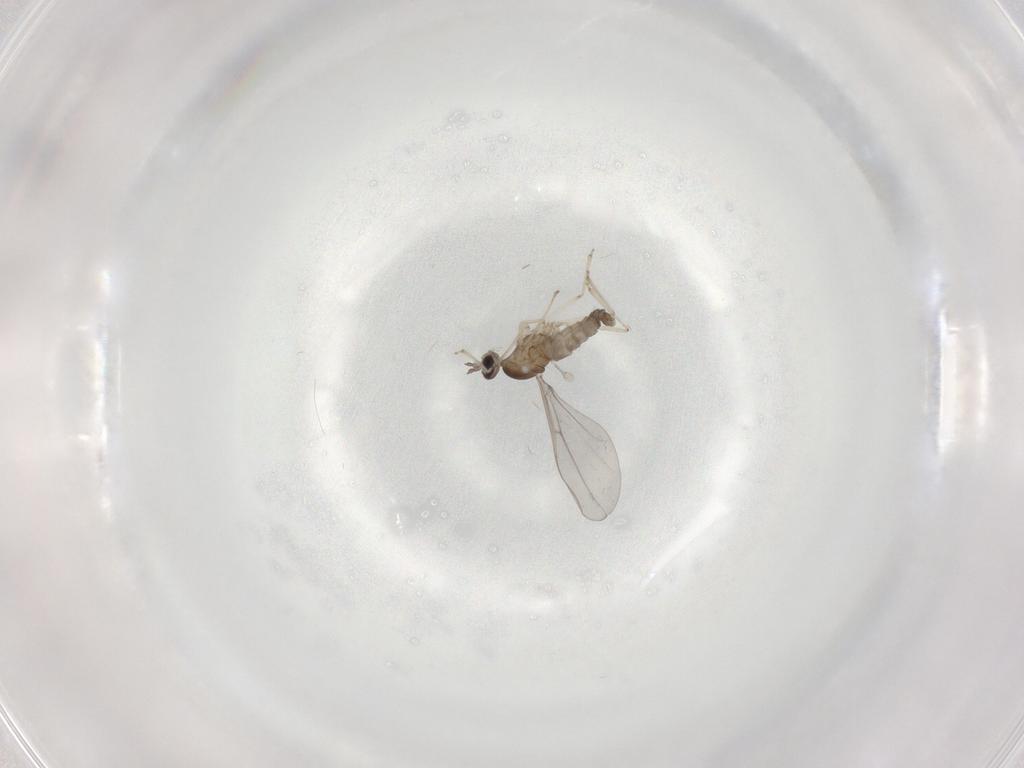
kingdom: Animalia
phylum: Arthropoda
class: Insecta
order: Diptera
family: Cecidomyiidae
